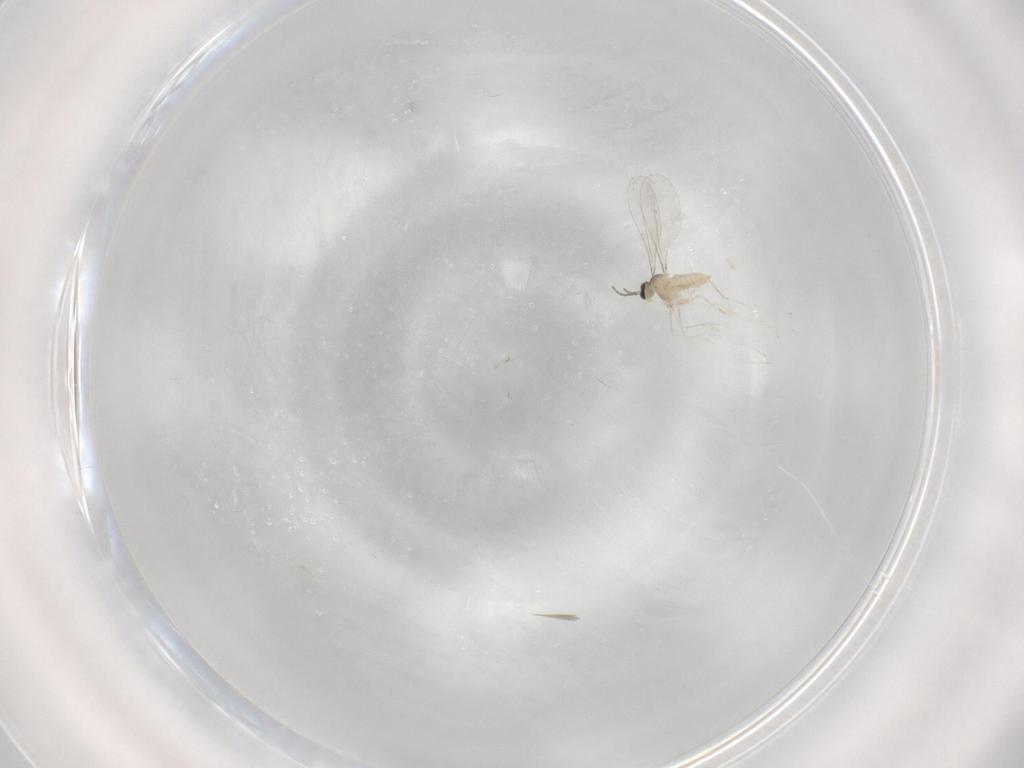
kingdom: Animalia
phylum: Arthropoda
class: Insecta
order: Diptera
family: Cecidomyiidae
